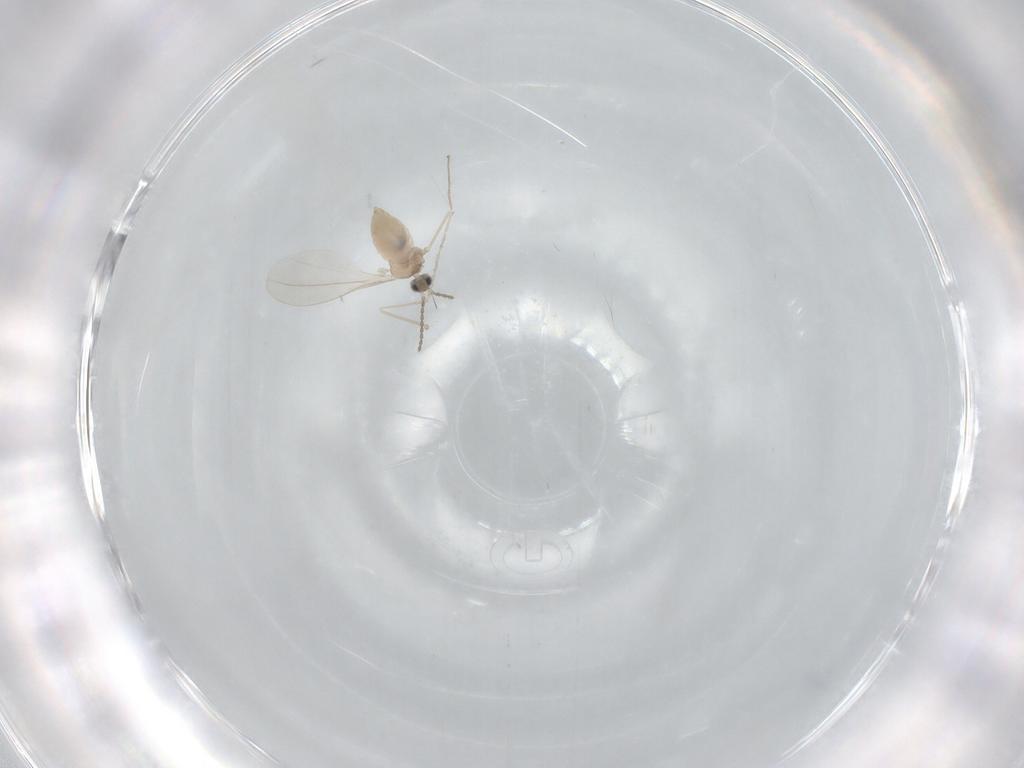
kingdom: Animalia
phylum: Arthropoda
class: Insecta
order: Diptera
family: Cecidomyiidae
